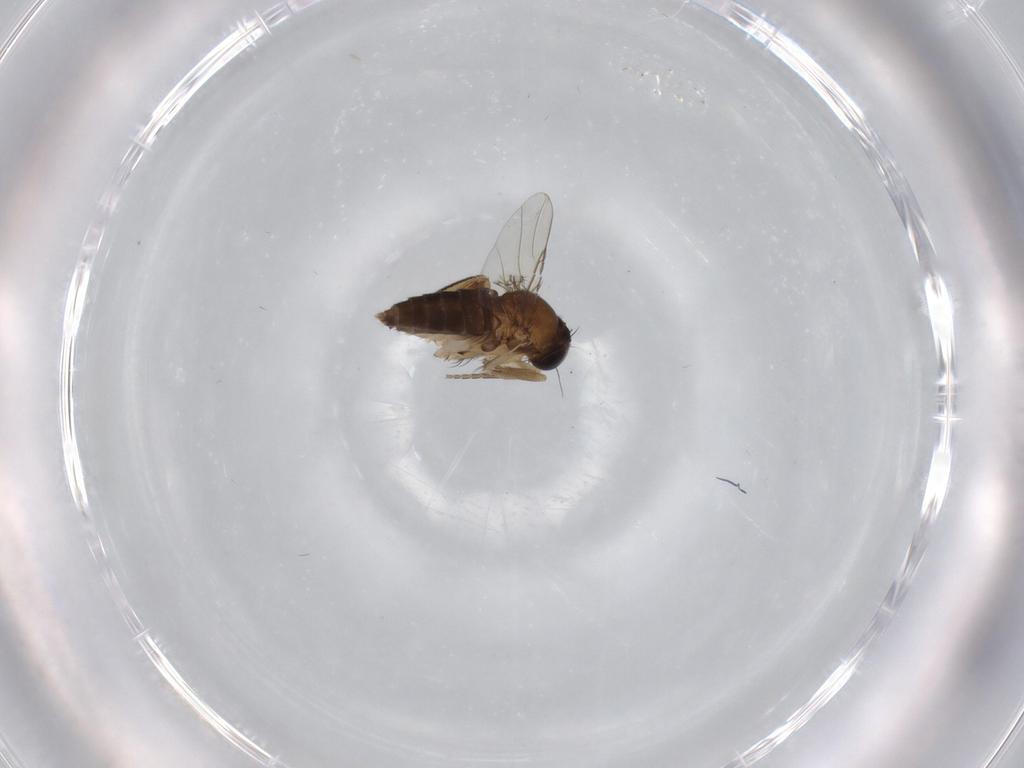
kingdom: Animalia
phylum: Arthropoda
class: Insecta
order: Diptera
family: Phoridae
